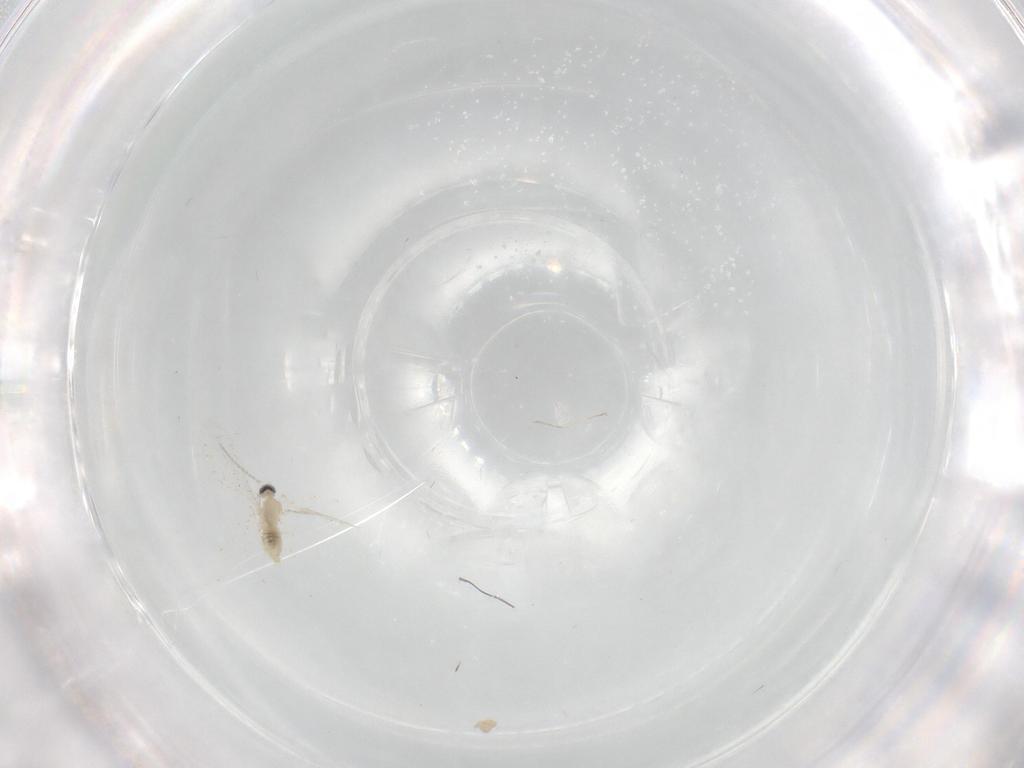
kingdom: Animalia
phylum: Arthropoda
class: Insecta
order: Diptera
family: Cecidomyiidae
